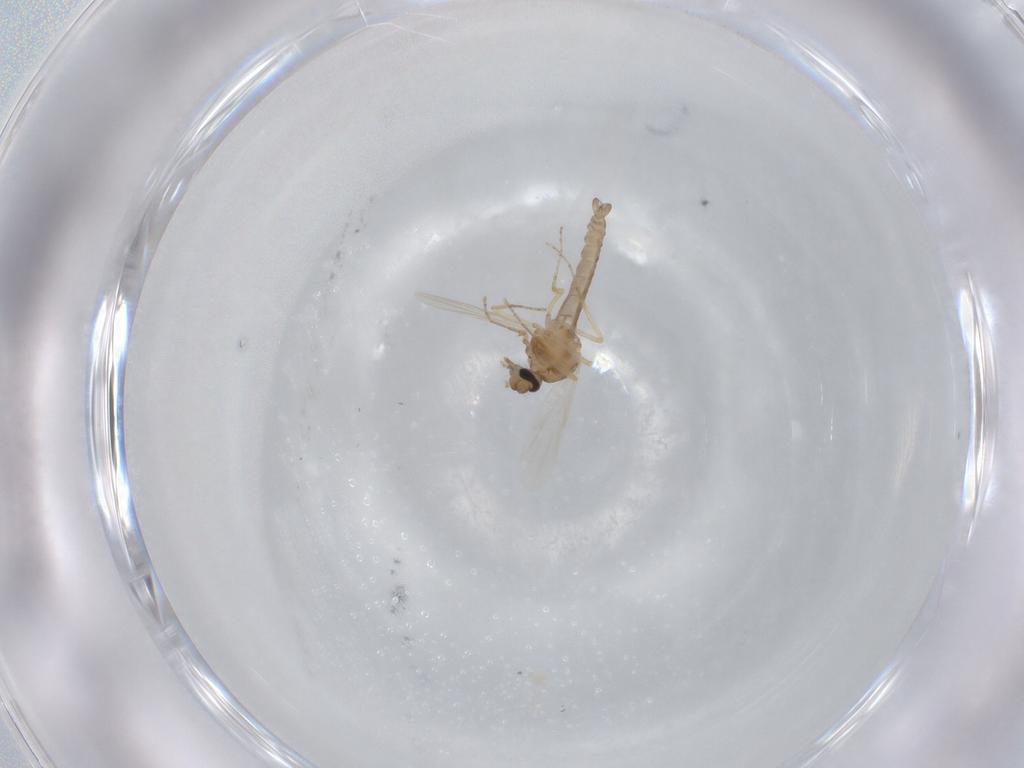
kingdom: Animalia
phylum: Arthropoda
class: Insecta
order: Diptera
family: Ceratopogonidae
